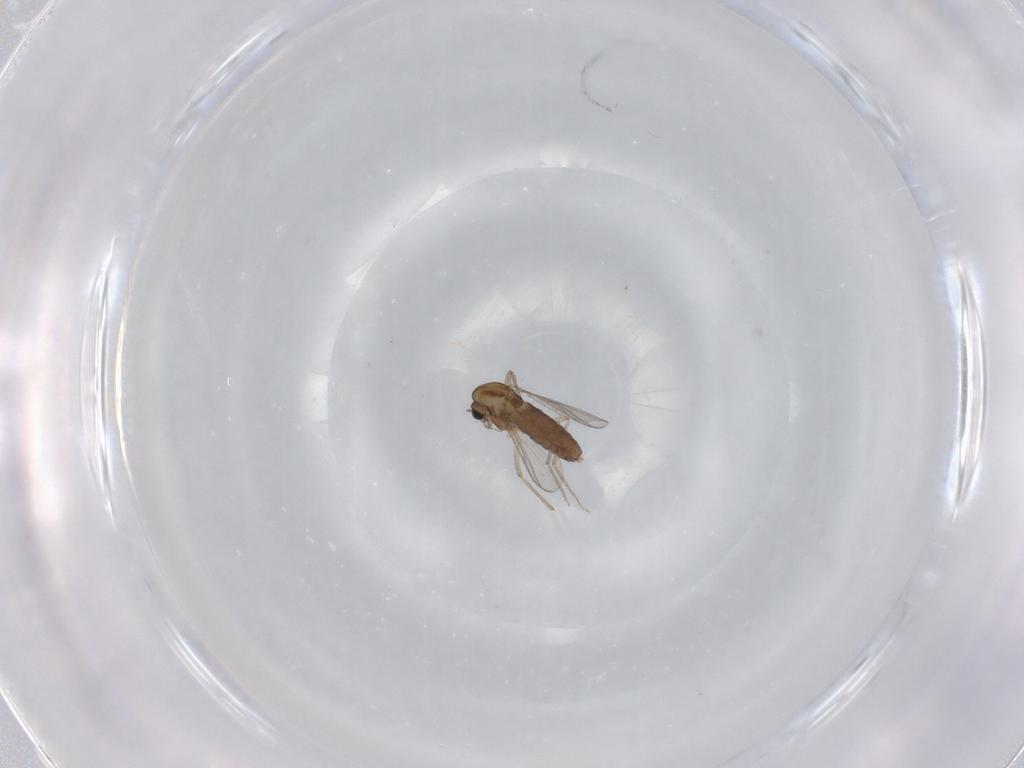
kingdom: Animalia
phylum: Arthropoda
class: Insecta
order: Diptera
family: Chironomidae
